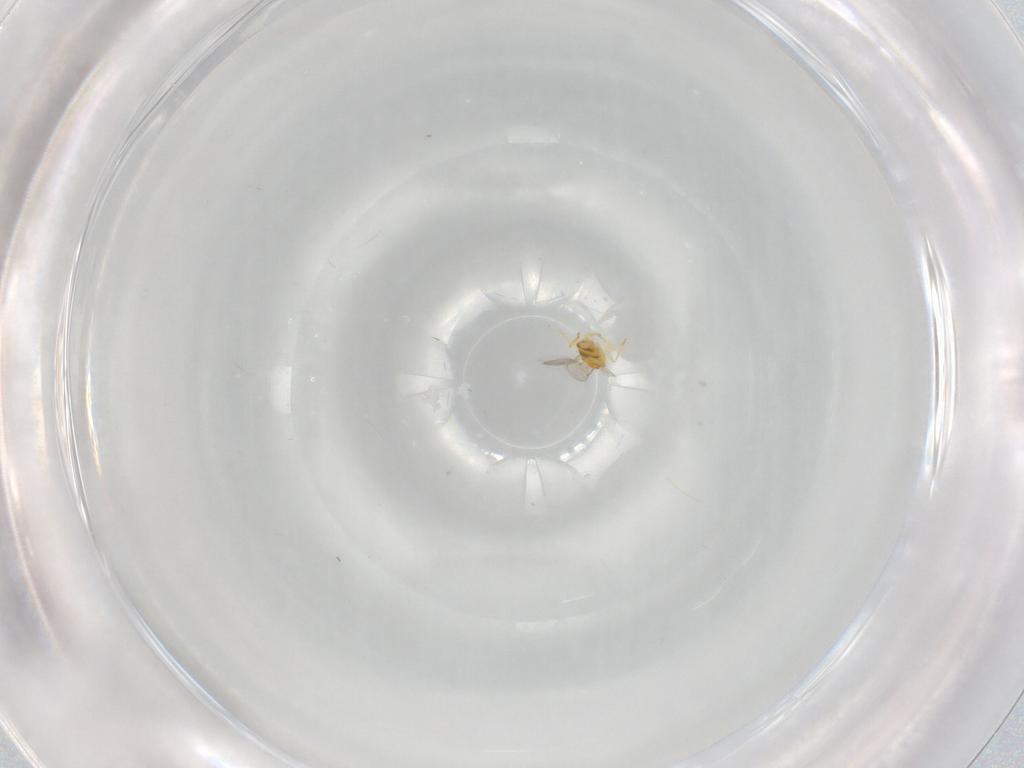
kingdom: Animalia
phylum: Arthropoda
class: Insecta
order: Hymenoptera
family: Aphelinidae
